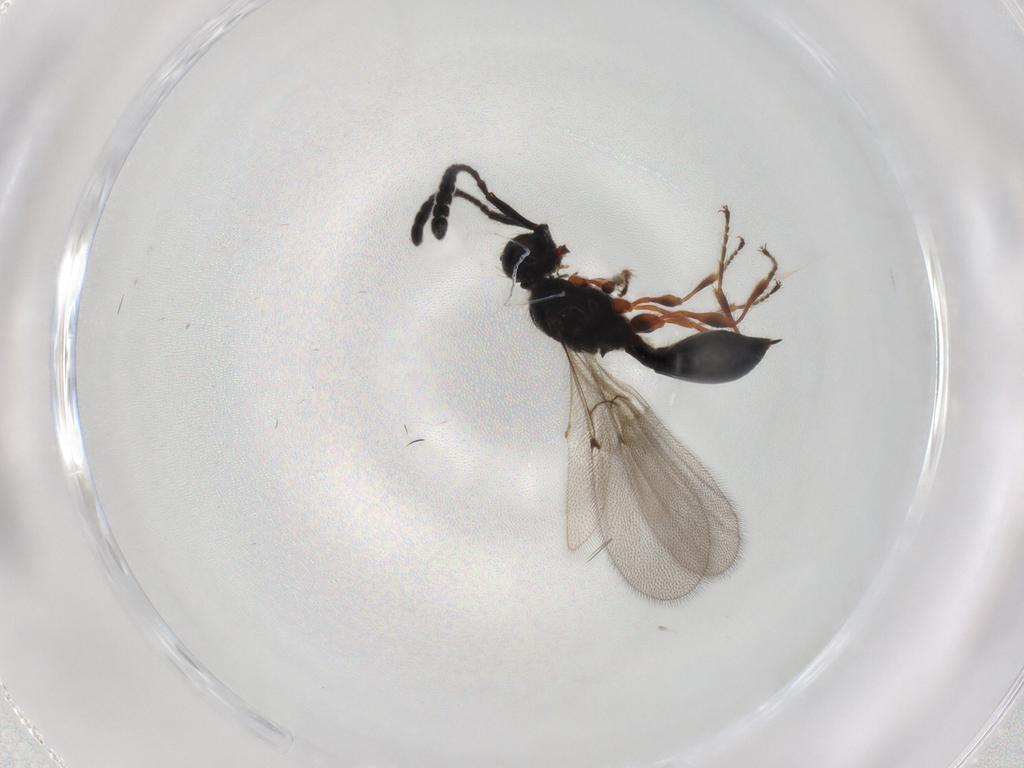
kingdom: Animalia
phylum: Arthropoda
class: Insecta
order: Hymenoptera
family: Diapriidae
